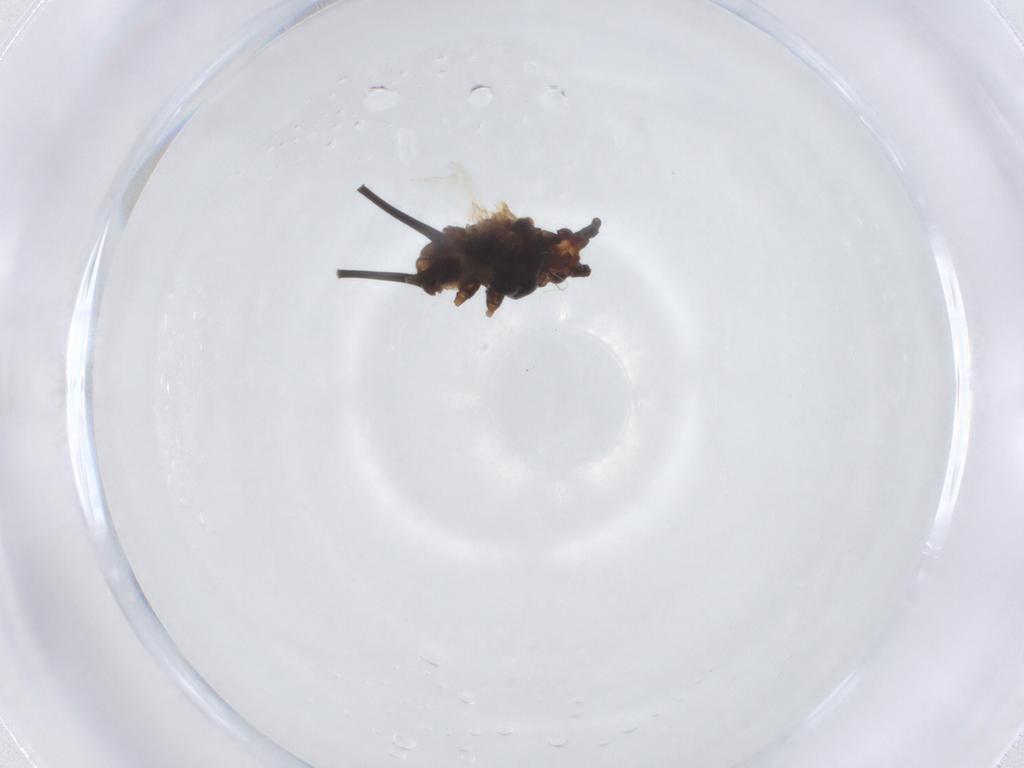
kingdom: Animalia
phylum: Arthropoda
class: Insecta
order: Hemiptera
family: Aphididae
